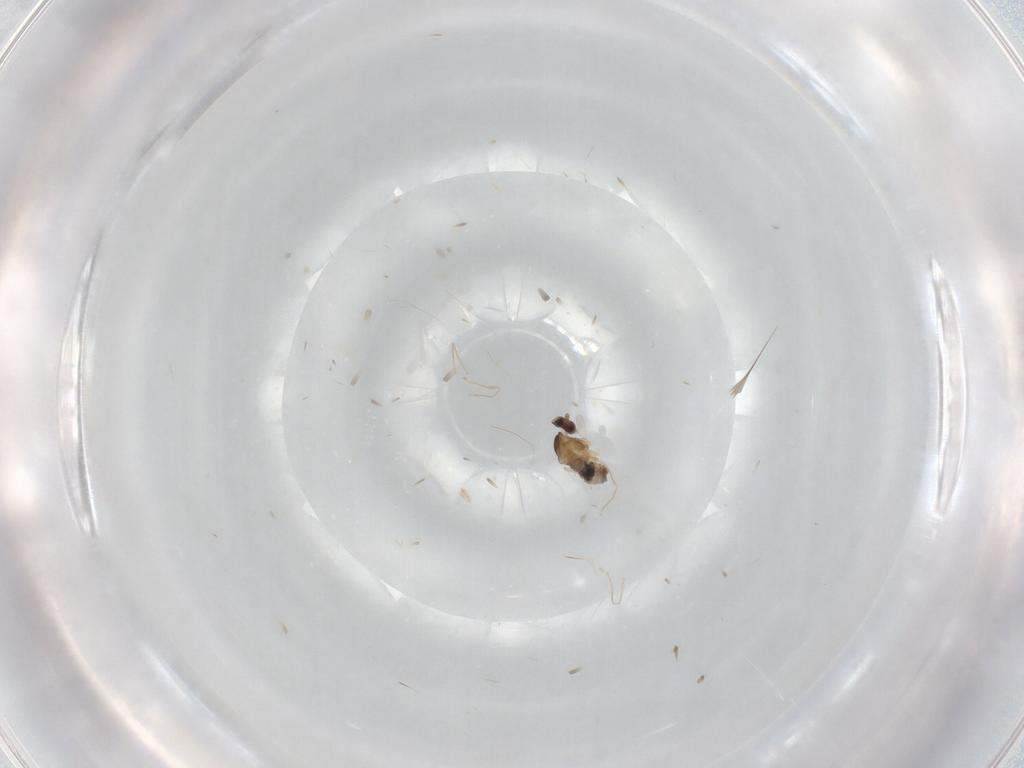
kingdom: Animalia
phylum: Arthropoda
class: Insecta
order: Diptera
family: Cecidomyiidae
